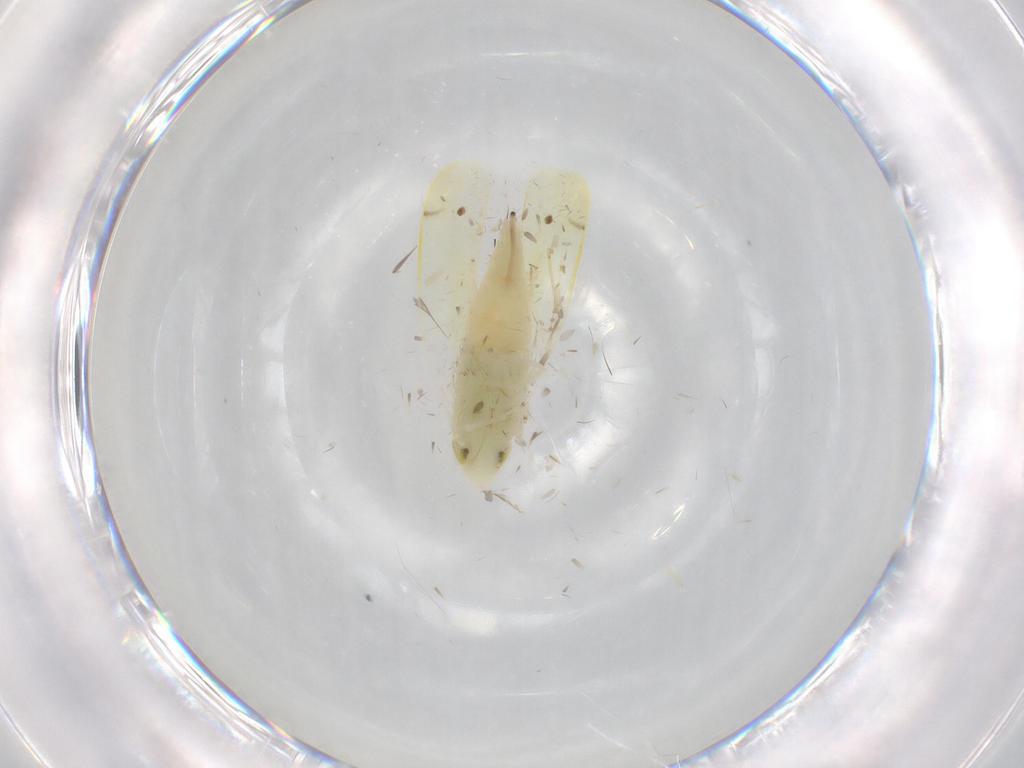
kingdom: Animalia
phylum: Arthropoda
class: Insecta
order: Hemiptera
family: Cicadellidae
